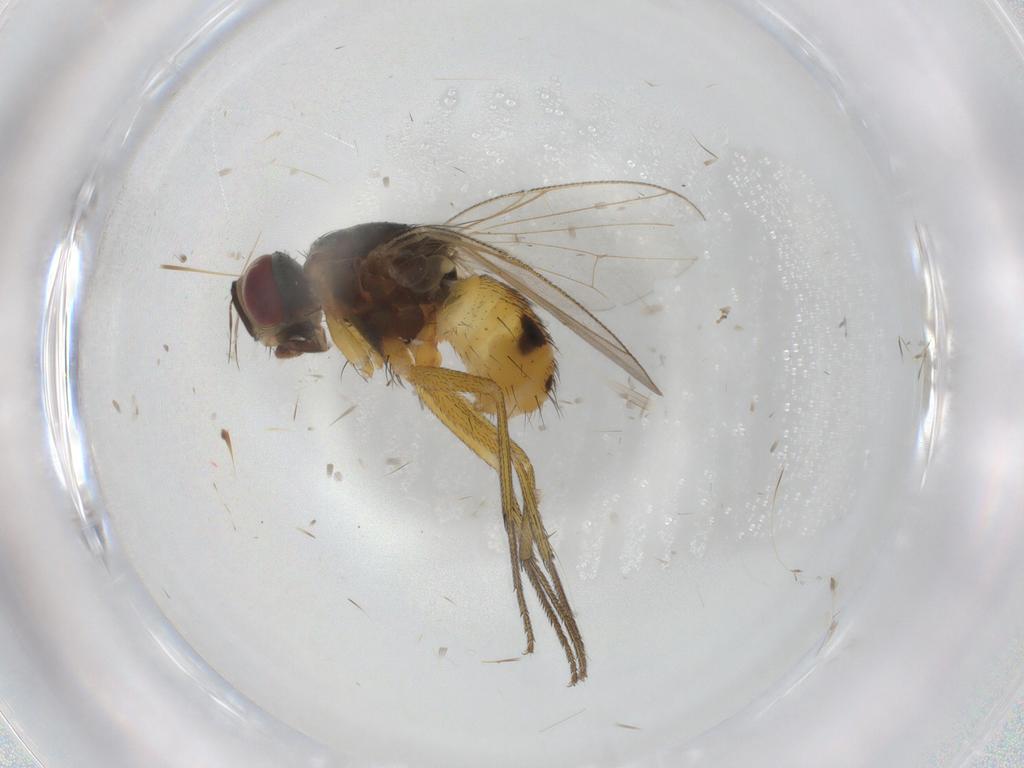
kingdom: Animalia
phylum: Arthropoda
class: Insecta
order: Diptera
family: Muscidae
